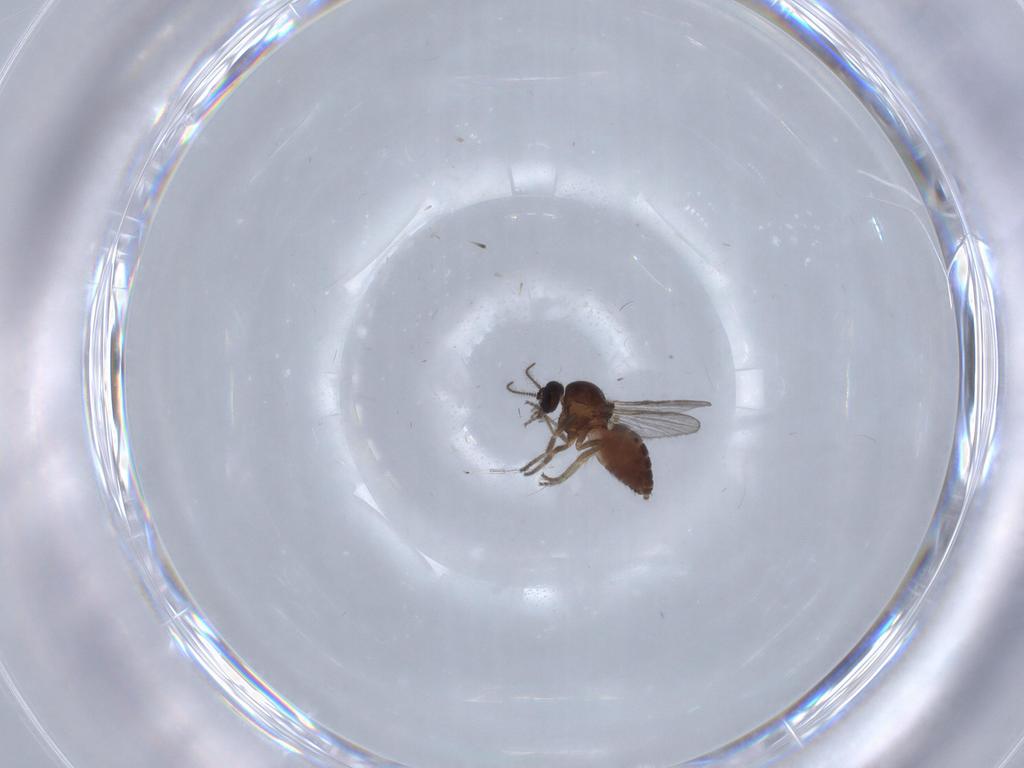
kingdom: Animalia
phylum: Arthropoda
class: Insecta
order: Diptera
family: Ceratopogonidae
